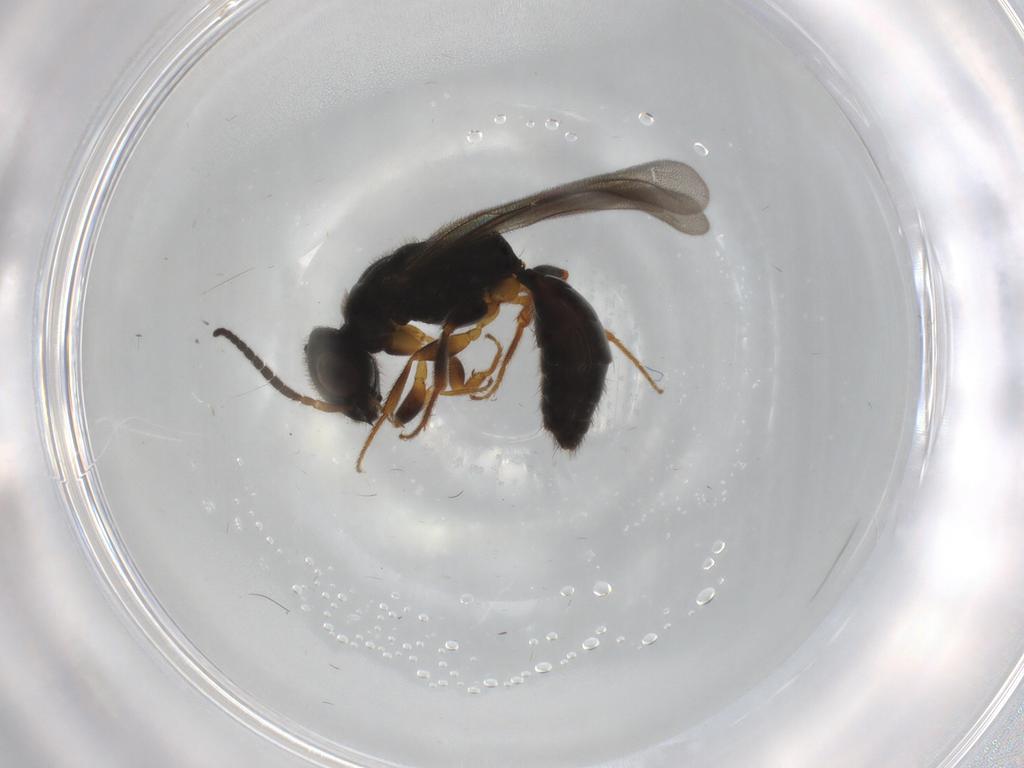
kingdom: Animalia
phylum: Arthropoda
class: Insecta
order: Hymenoptera
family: Bethylidae
